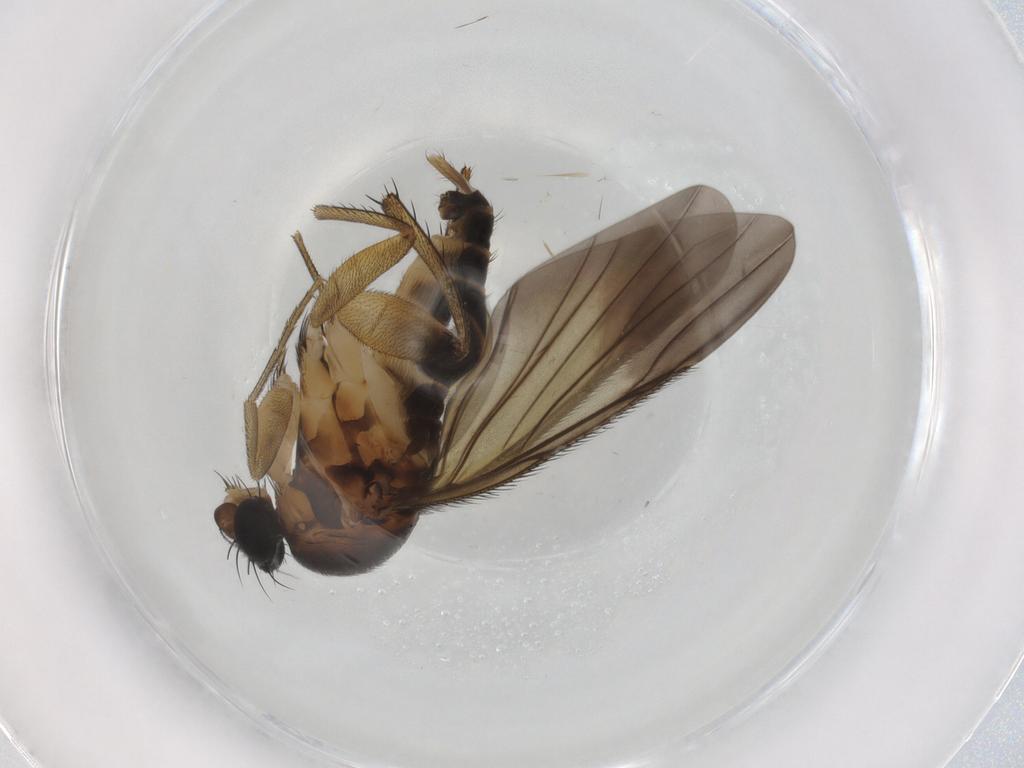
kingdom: Animalia
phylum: Arthropoda
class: Insecta
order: Diptera
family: Phoridae
